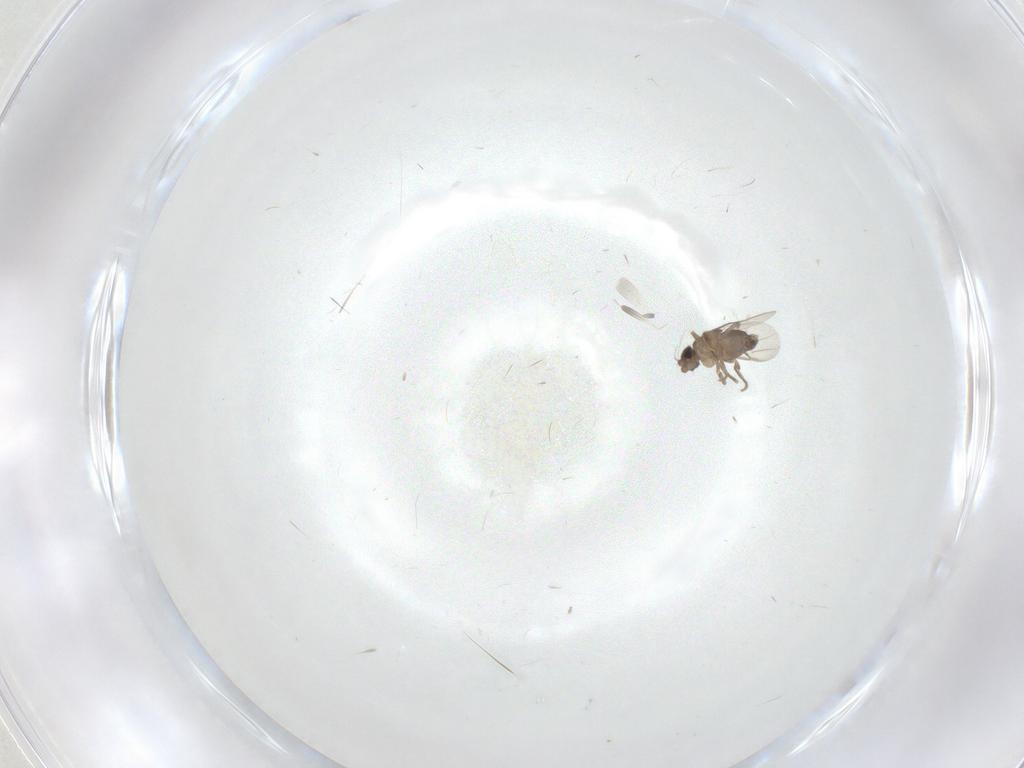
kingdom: Animalia
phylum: Arthropoda
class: Insecta
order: Diptera
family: Phoridae
